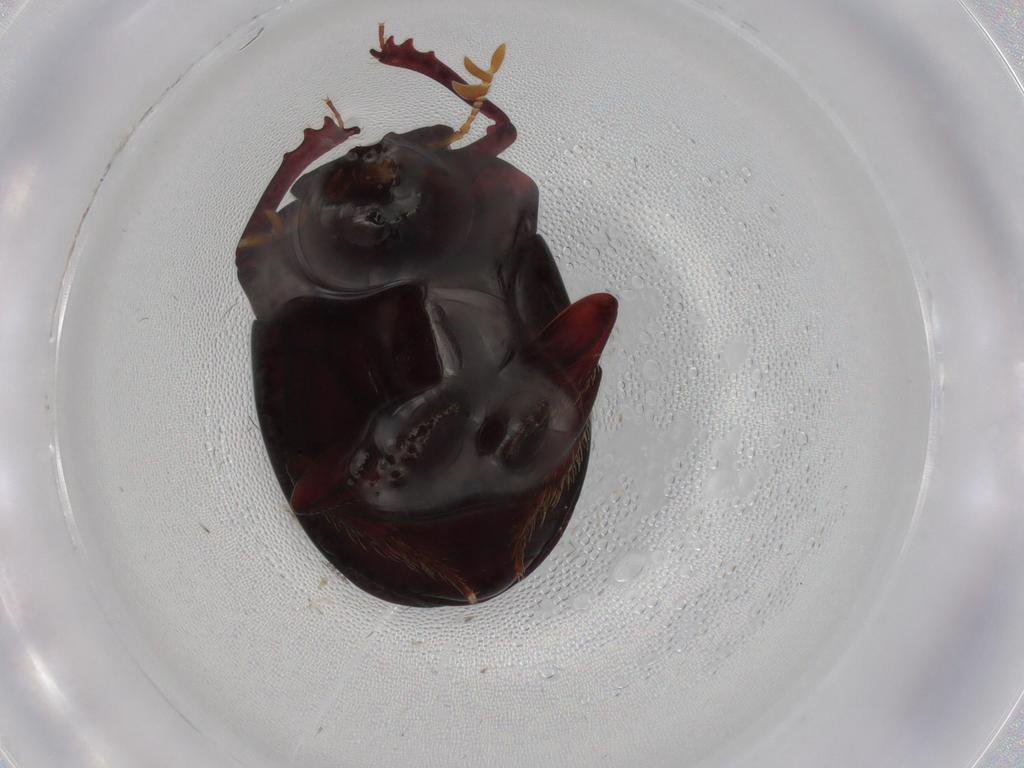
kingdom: Animalia
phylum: Arthropoda
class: Insecta
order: Coleoptera
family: Scarabaeidae
